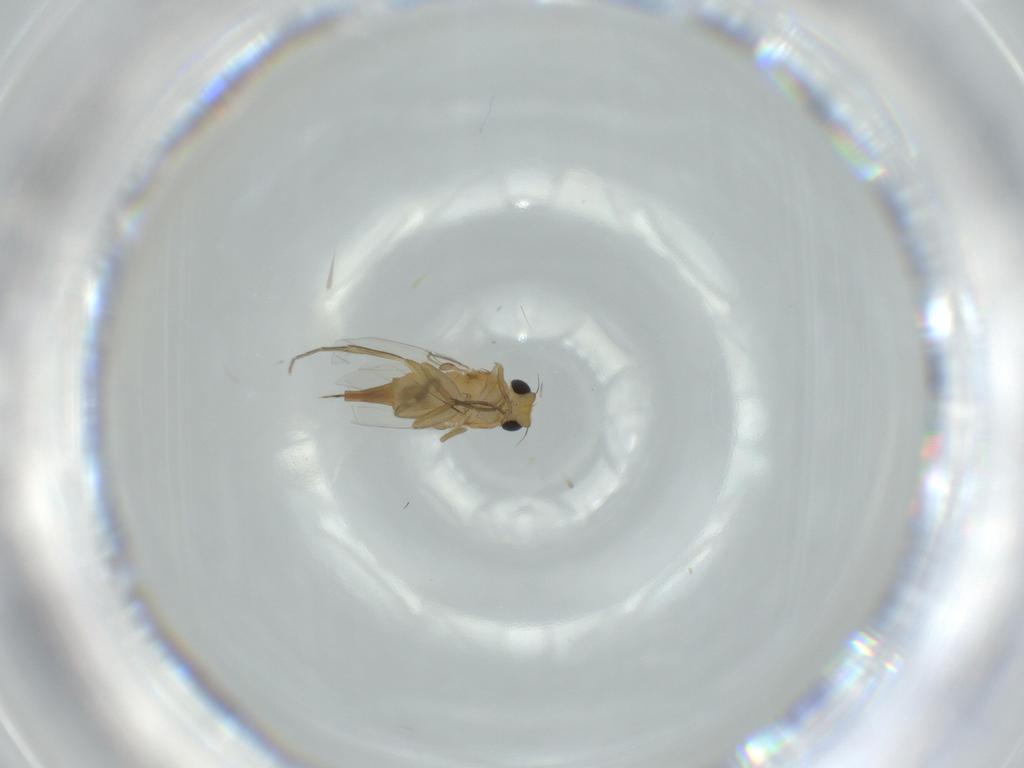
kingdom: Animalia
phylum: Arthropoda
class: Insecta
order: Diptera
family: Phoridae
